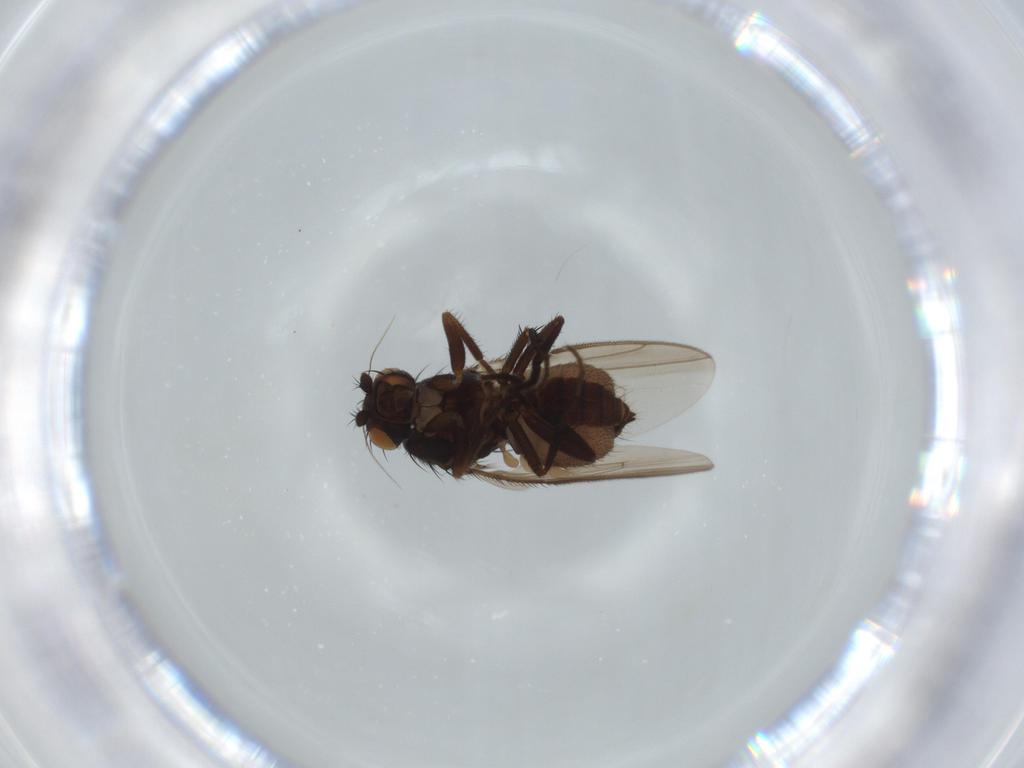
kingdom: Animalia
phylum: Arthropoda
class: Insecta
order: Diptera
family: Sphaeroceridae
